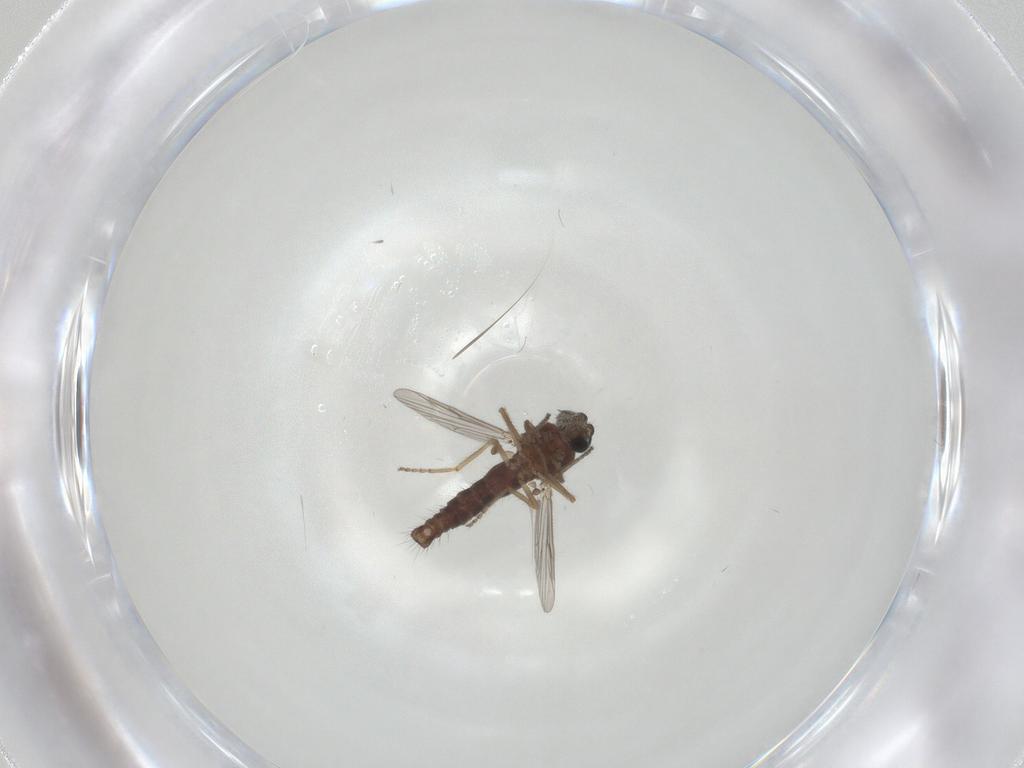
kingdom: Animalia
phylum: Arthropoda
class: Insecta
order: Diptera
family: Ceratopogonidae
